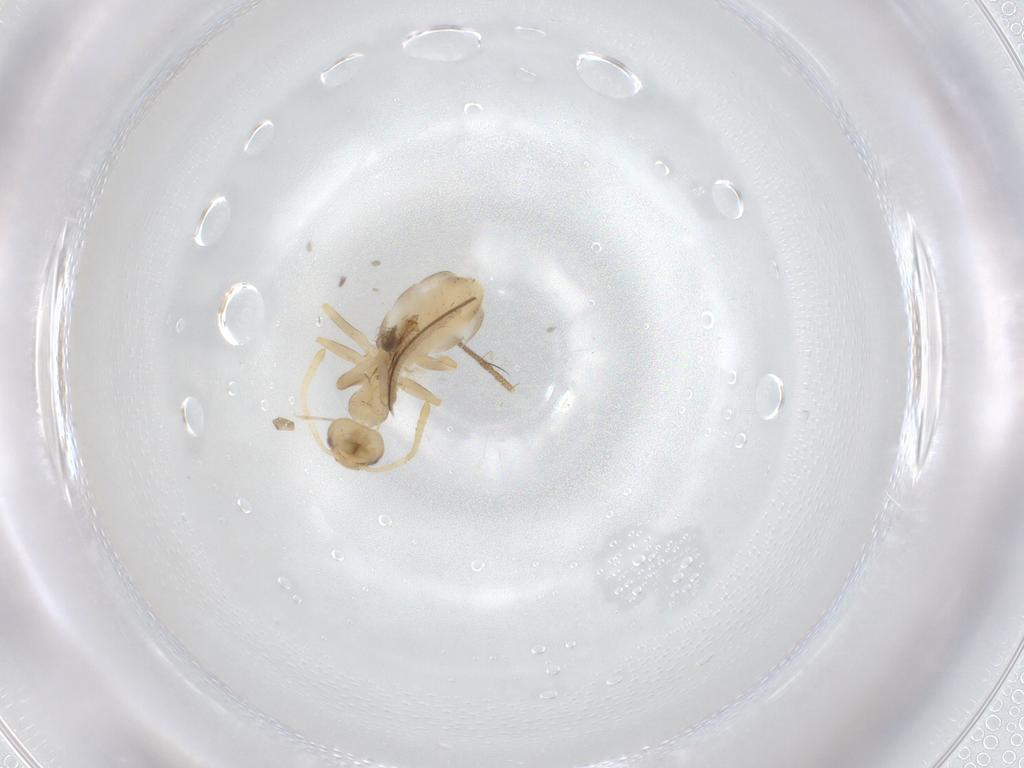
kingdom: Animalia
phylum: Arthropoda
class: Insecta
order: Hymenoptera
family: Formicidae
